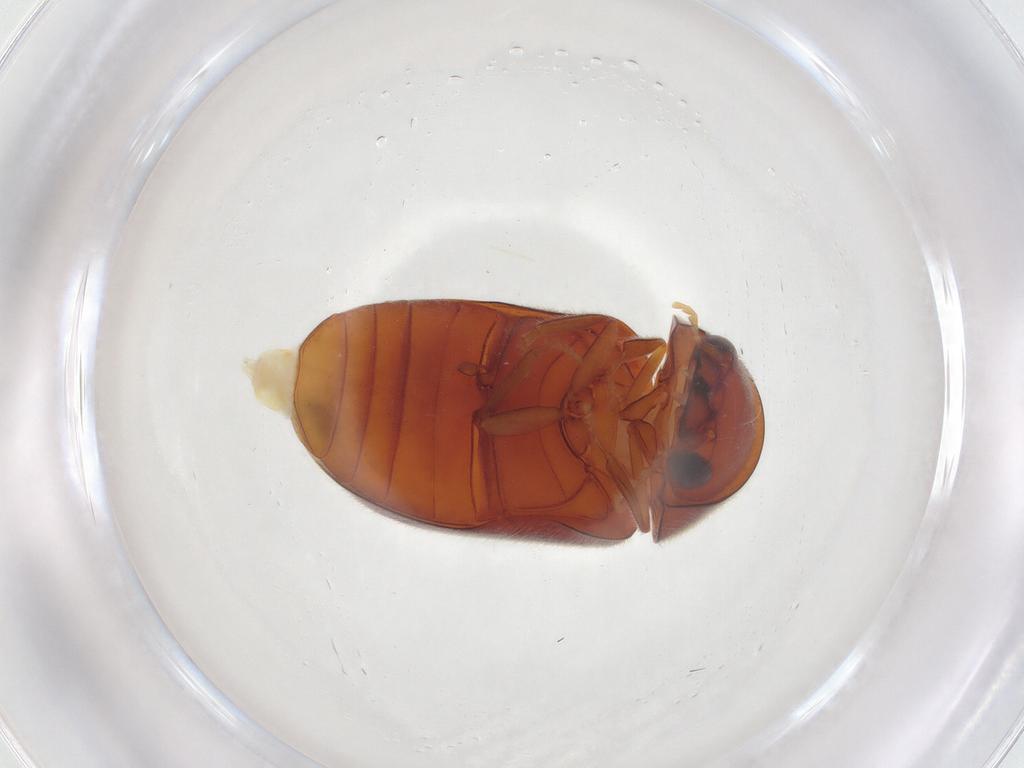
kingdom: Animalia
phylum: Arthropoda
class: Insecta
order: Coleoptera
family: Ptinidae
